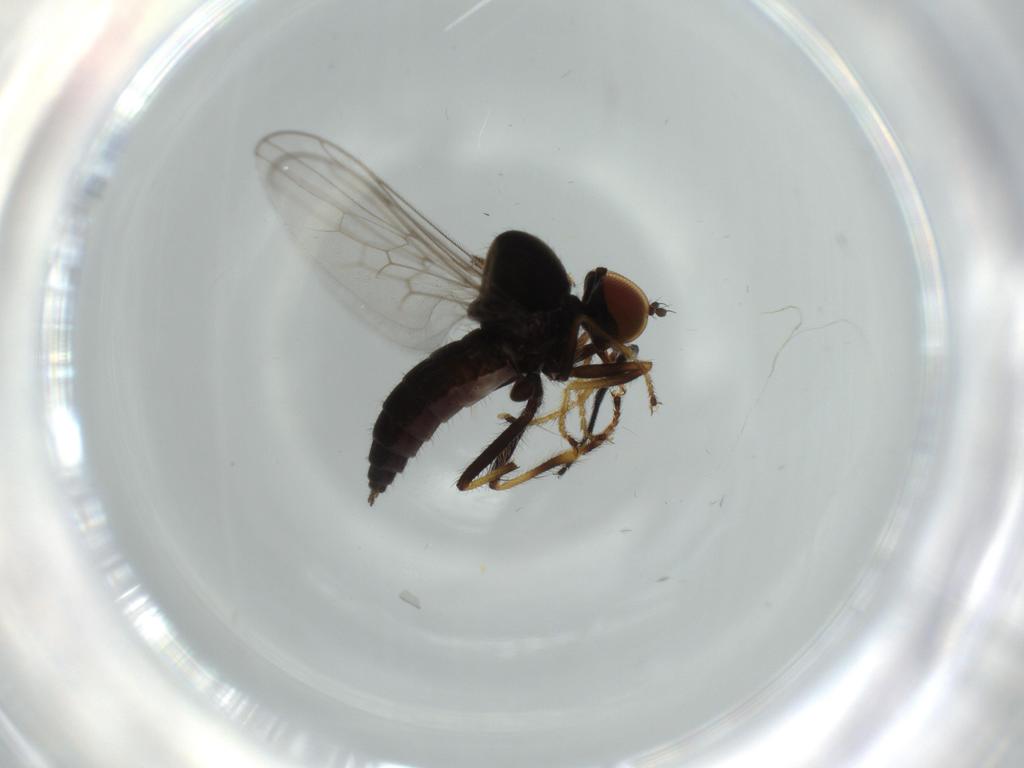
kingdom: Animalia
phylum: Arthropoda
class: Insecta
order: Diptera
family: Hybotidae
